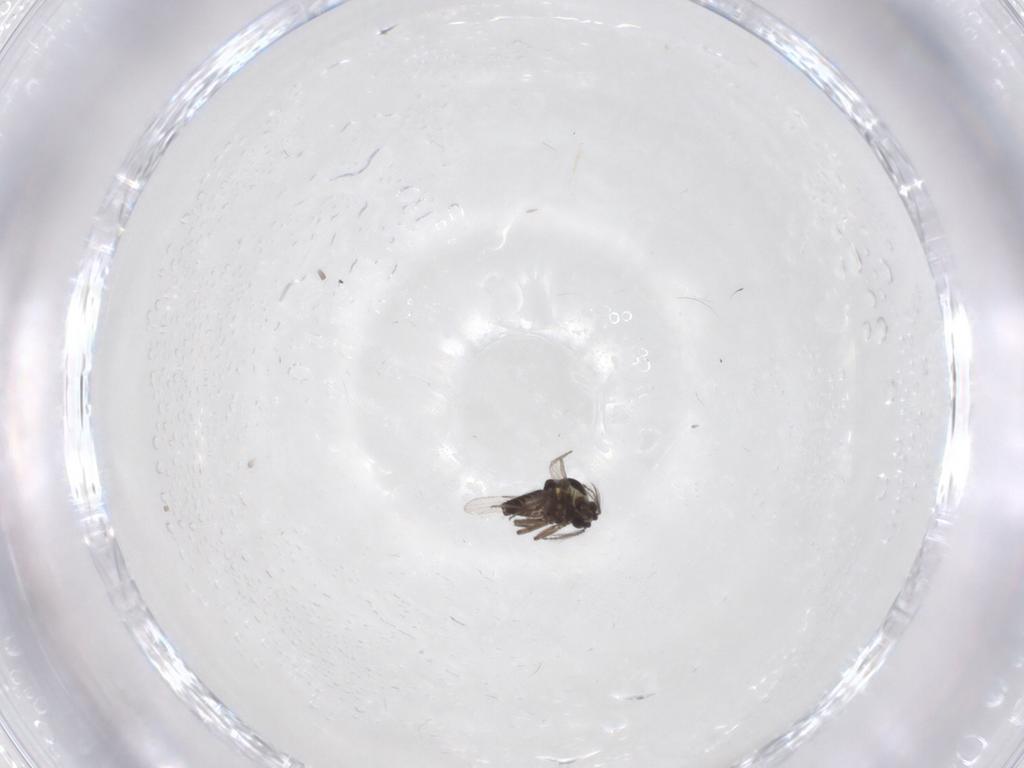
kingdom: Animalia
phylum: Arthropoda
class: Insecta
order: Diptera
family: Ceratopogonidae
